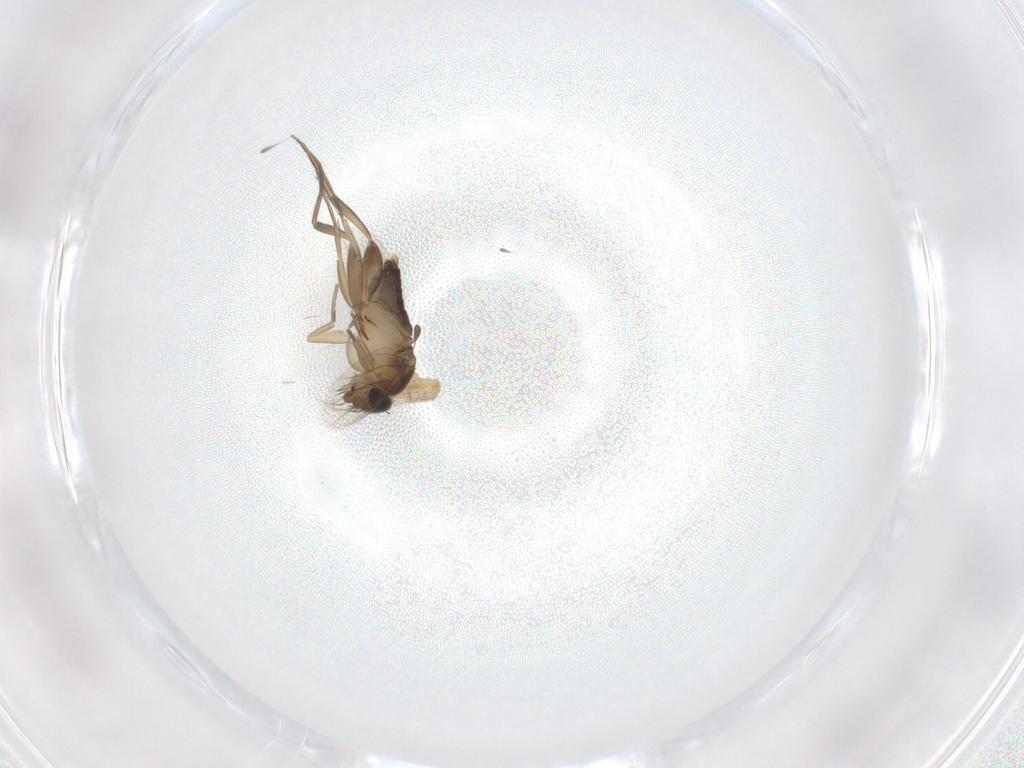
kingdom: Animalia
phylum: Arthropoda
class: Insecta
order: Diptera
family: Phoridae
